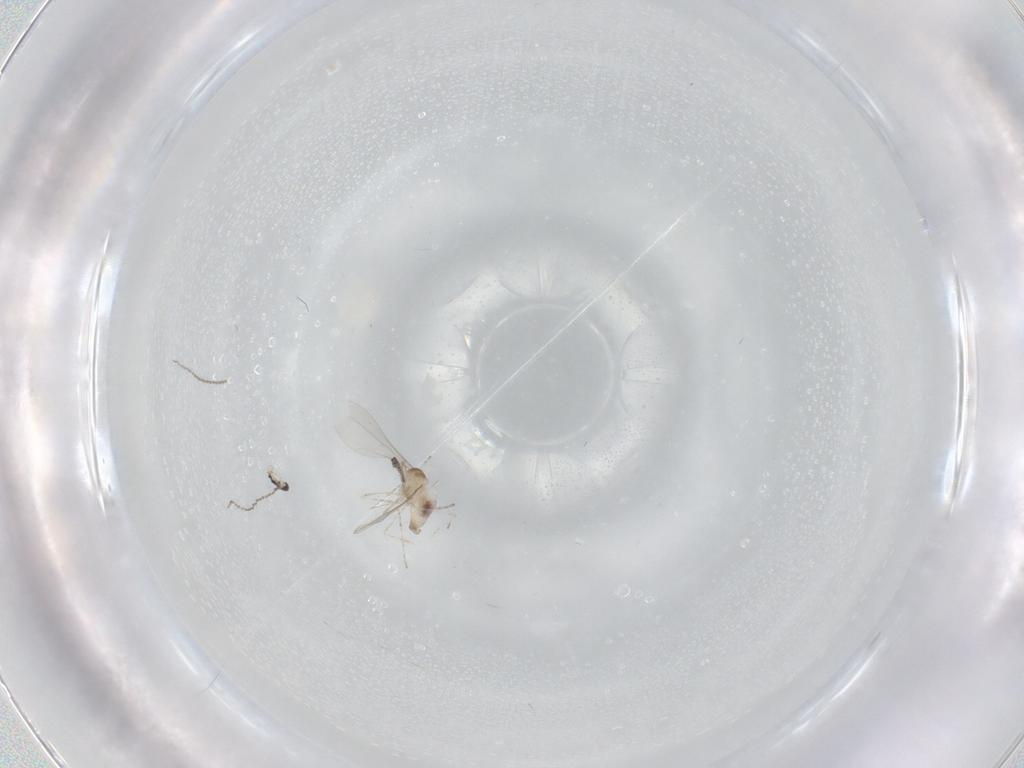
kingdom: Animalia
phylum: Arthropoda
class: Insecta
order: Diptera
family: Cecidomyiidae
